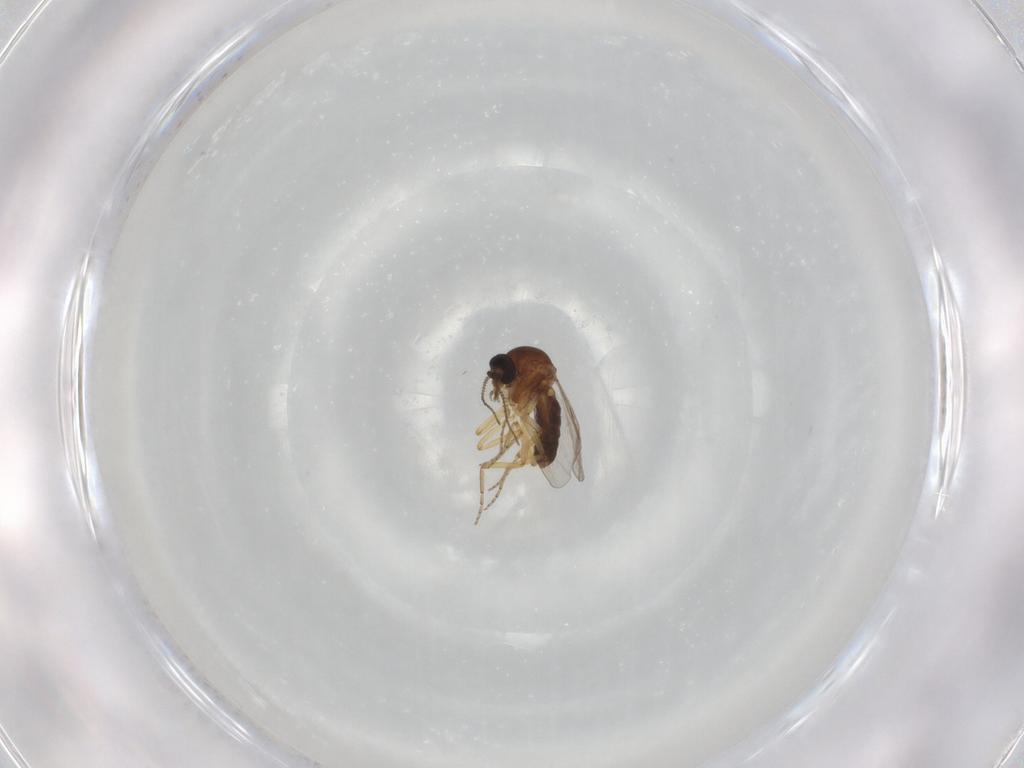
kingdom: Animalia
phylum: Arthropoda
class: Insecta
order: Diptera
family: Ceratopogonidae
